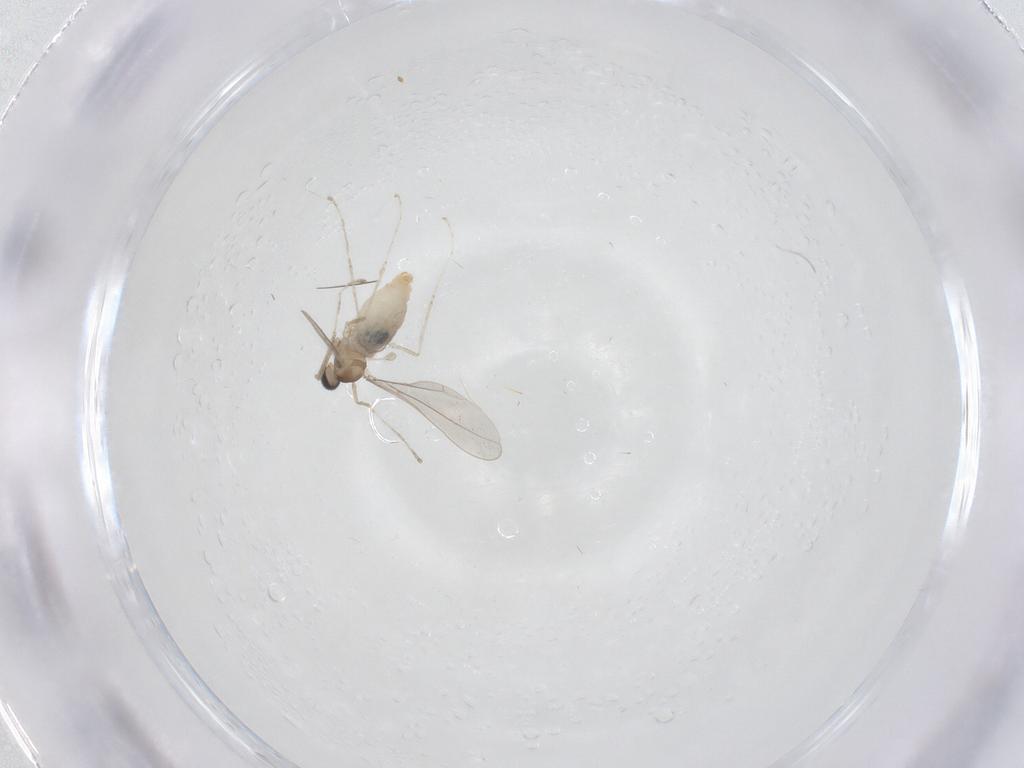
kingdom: Animalia
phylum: Arthropoda
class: Insecta
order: Diptera
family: Cecidomyiidae
